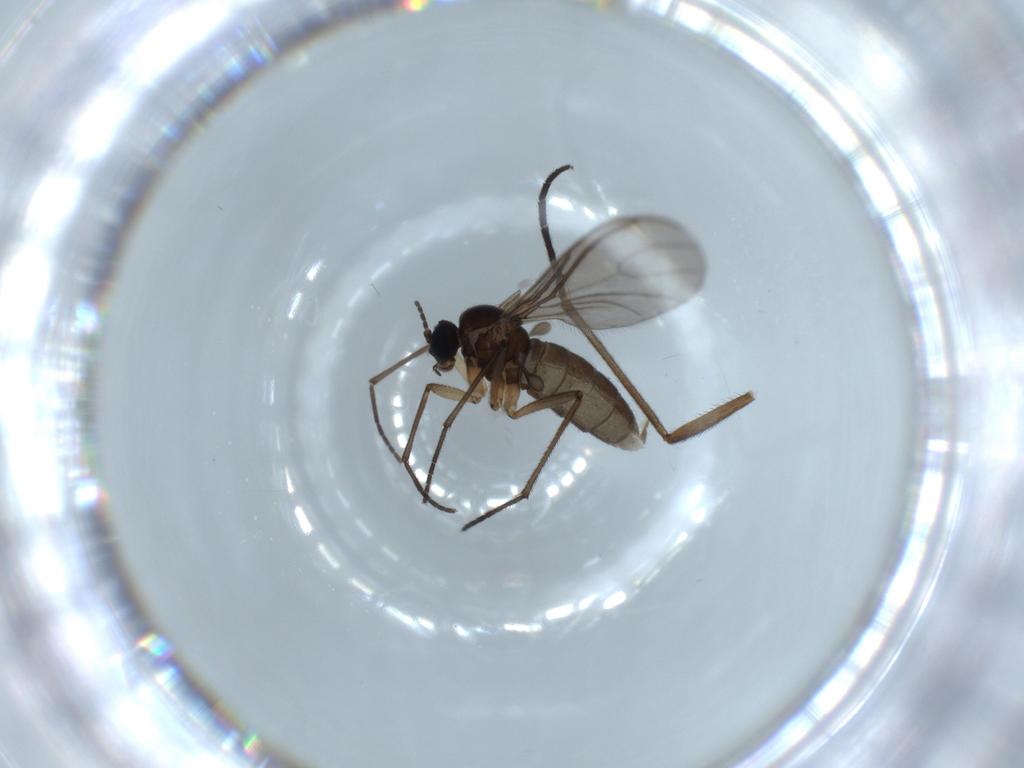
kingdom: Animalia
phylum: Arthropoda
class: Insecta
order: Diptera
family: Sciaridae
